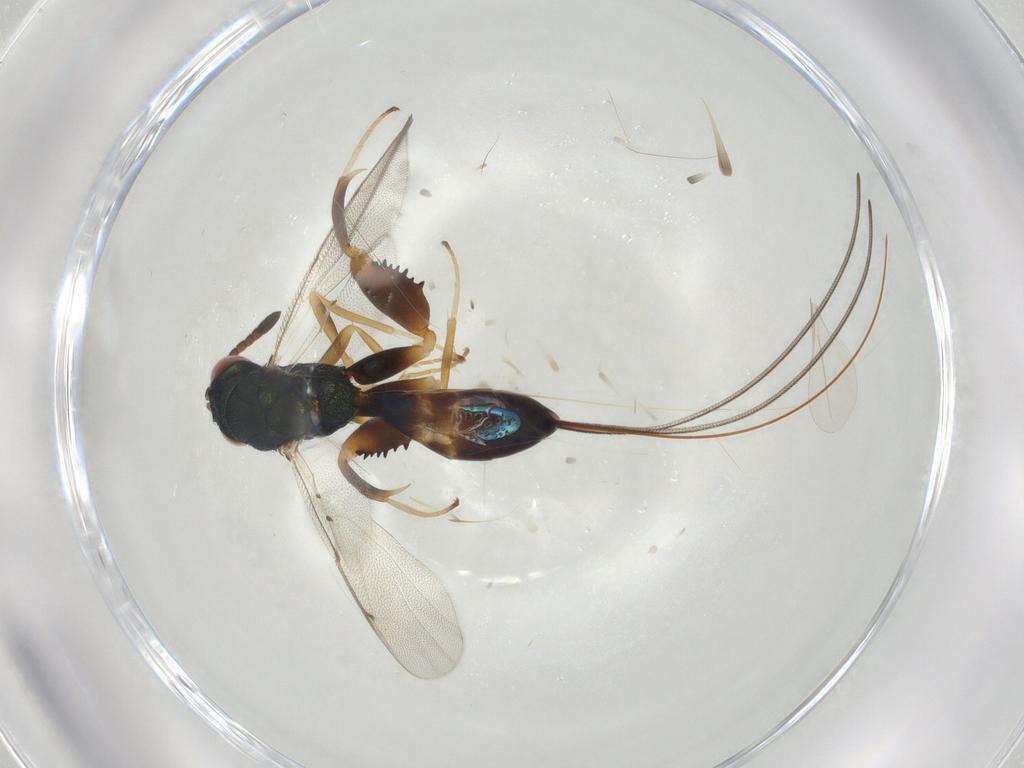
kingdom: Animalia
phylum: Arthropoda
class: Insecta
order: Hymenoptera
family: Torymidae
